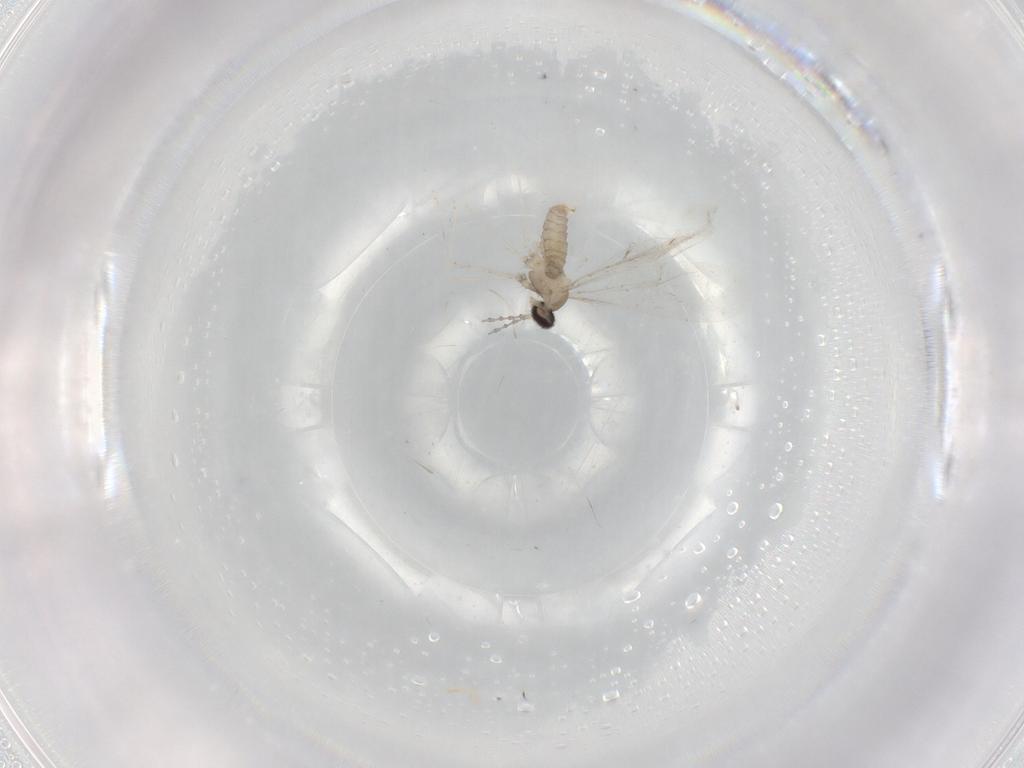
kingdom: Animalia
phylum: Arthropoda
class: Insecta
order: Diptera
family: Cecidomyiidae
